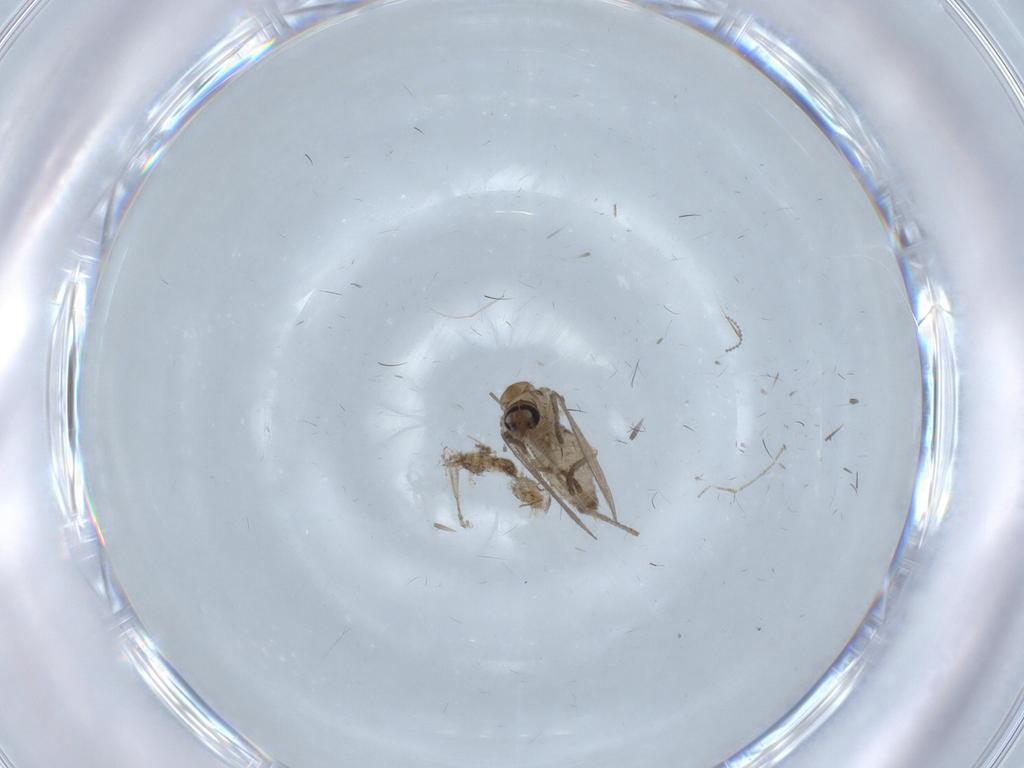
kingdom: Animalia
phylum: Arthropoda
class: Insecta
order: Diptera
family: Psychodidae
